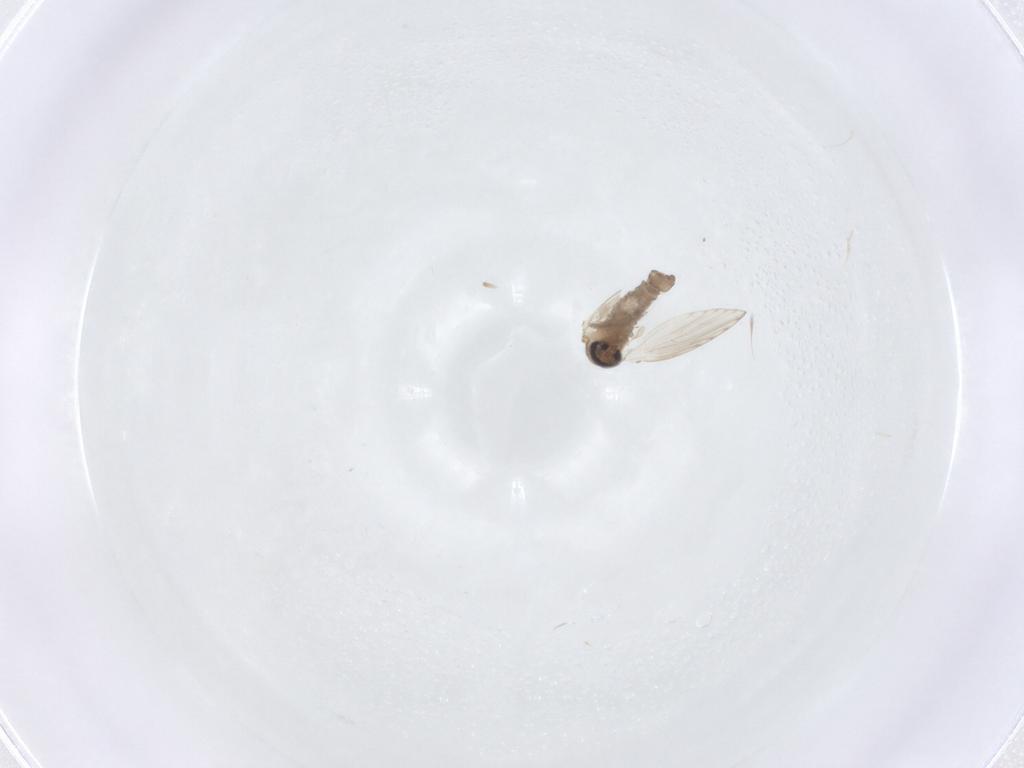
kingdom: Animalia
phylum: Arthropoda
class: Insecta
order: Diptera
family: Psychodidae
